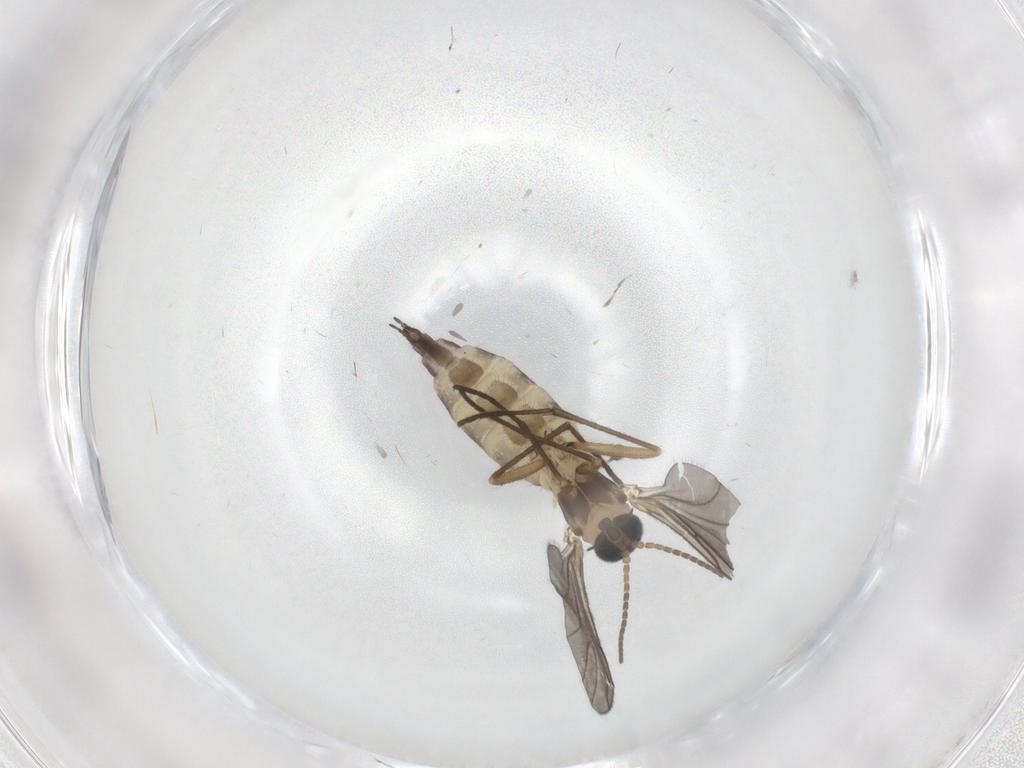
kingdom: Animalia
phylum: Arthropoda
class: Insecta
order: Diptera
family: Sciaridae
